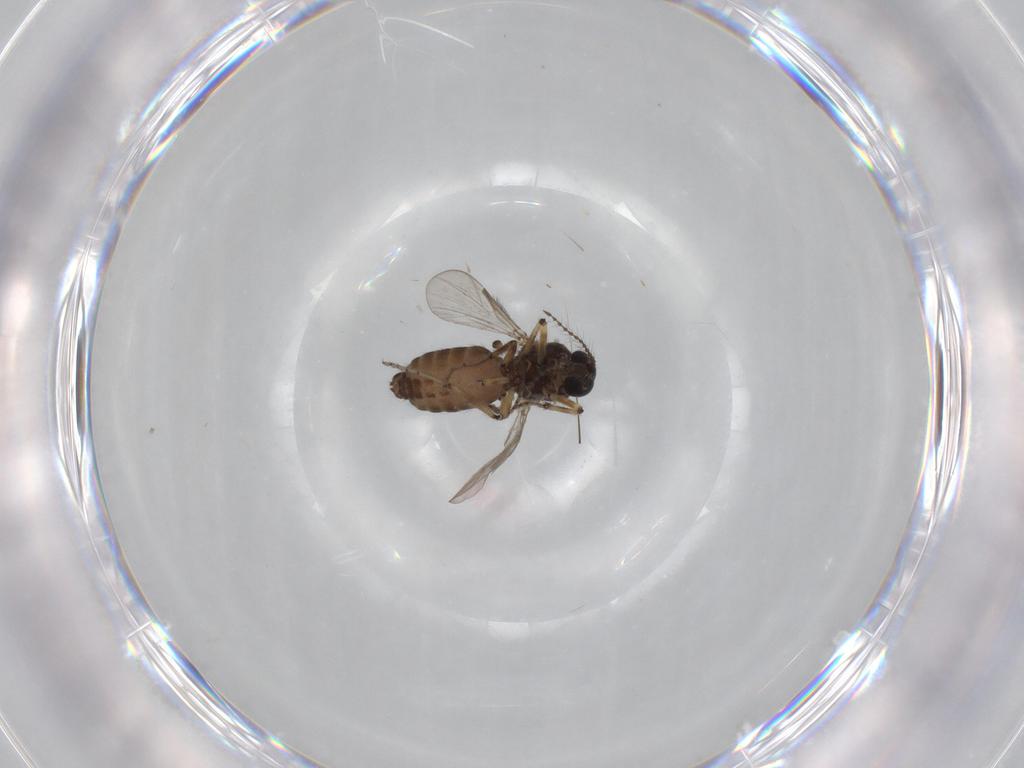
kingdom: Animalia
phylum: Arthropoda
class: Insecta
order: Diptera
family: Ceratopogonidae
